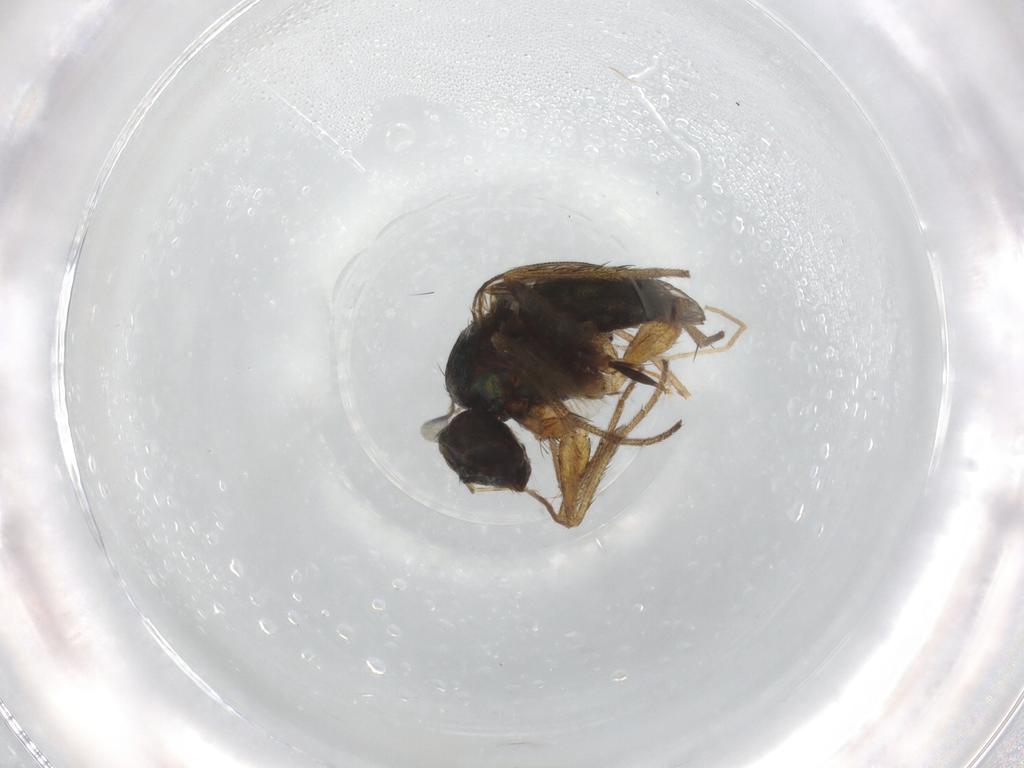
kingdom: Animalia
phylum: Arthropoda
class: Insecta
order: Diptera
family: Dolichopodidae
